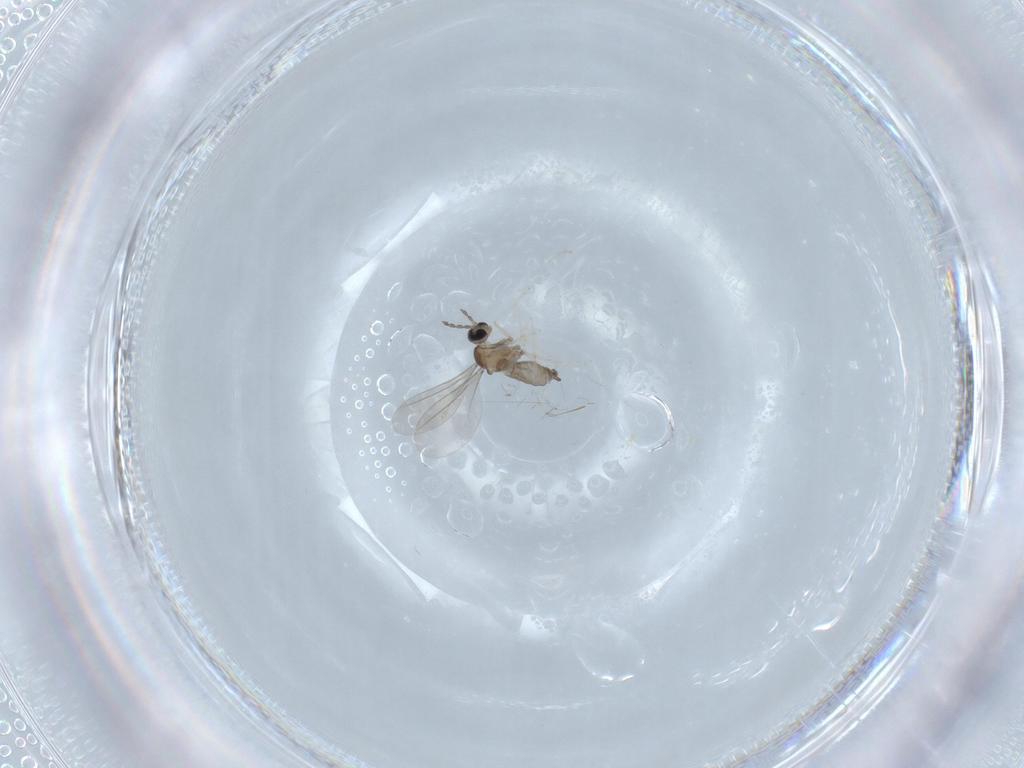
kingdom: Animalia
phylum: Arthropoda
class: Insecta
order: Diptera
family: Cecidomyiidae
